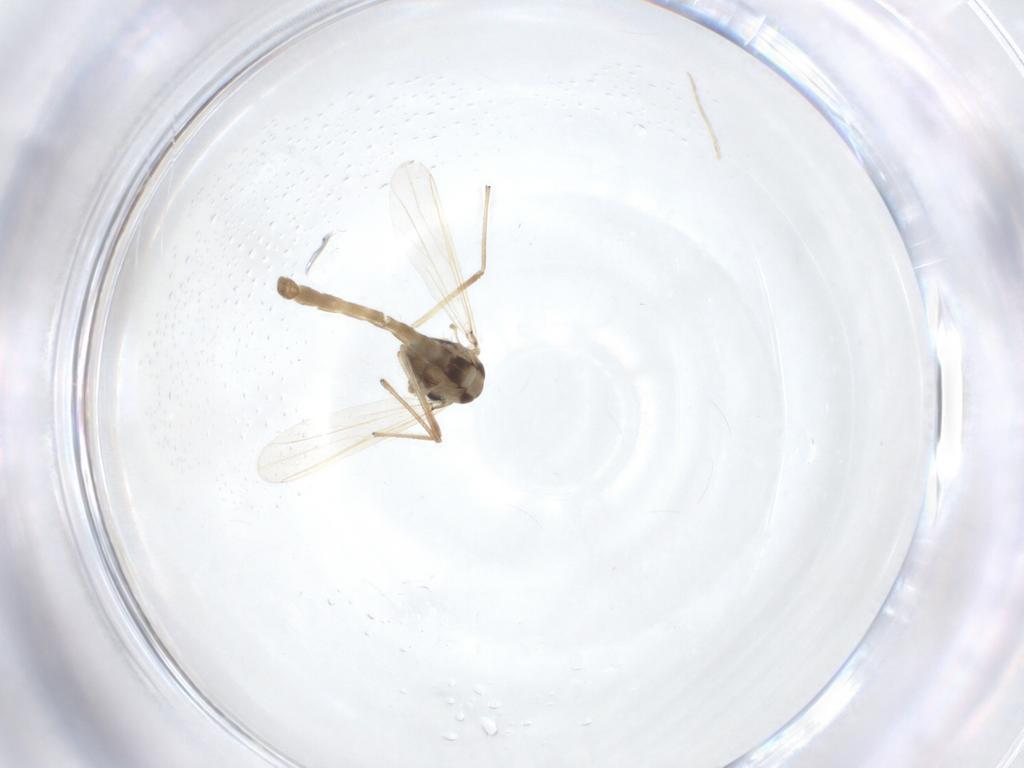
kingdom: Animalia
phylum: Arthropoda
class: Insecta
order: Diptera
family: Chironomidae
